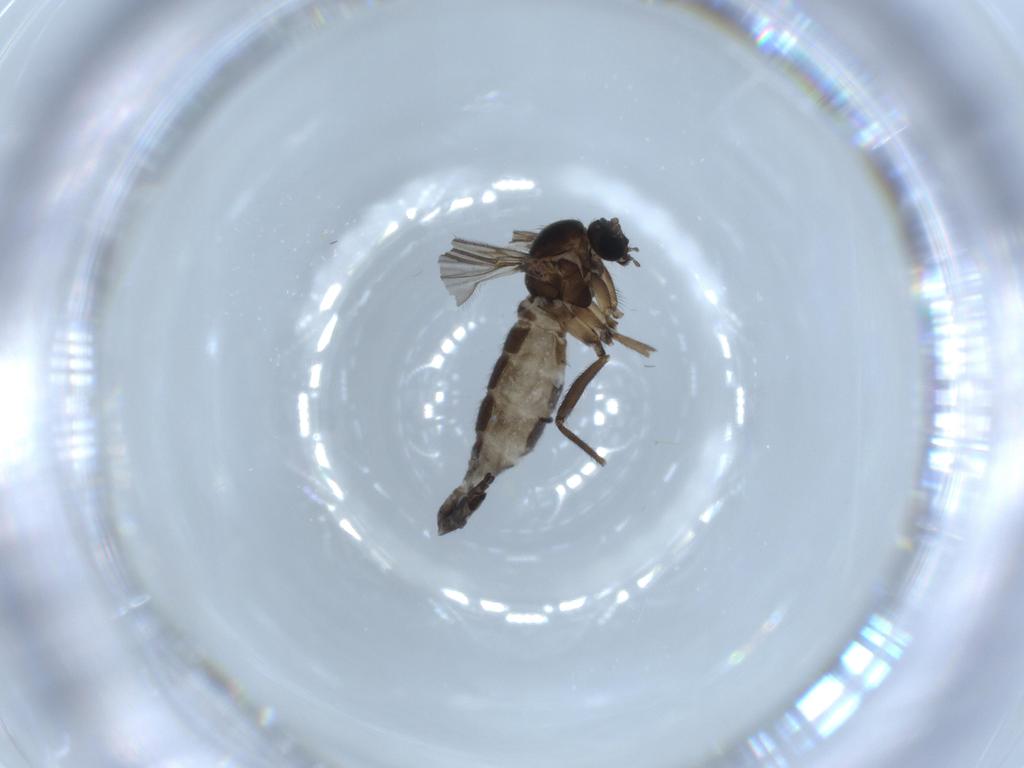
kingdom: Animalia
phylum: Arthropoda
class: Insecta
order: Diptera
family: Sciaridae
